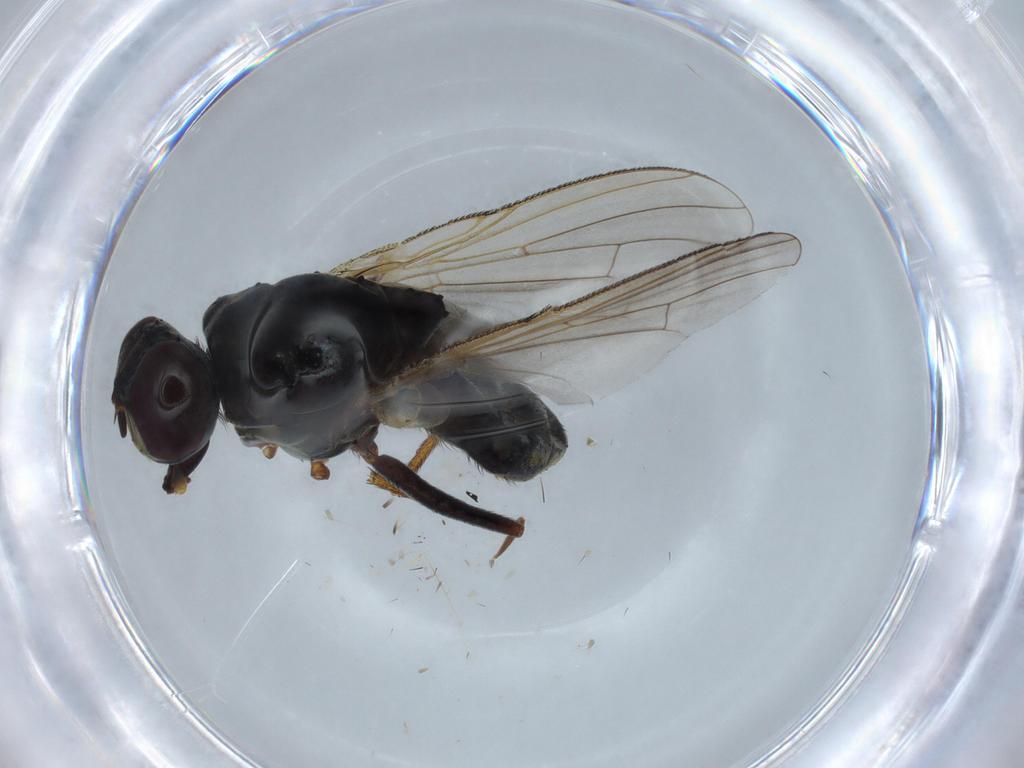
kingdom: Animalia
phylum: Arthropoda
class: Insecta
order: Diptera
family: Muscidae
